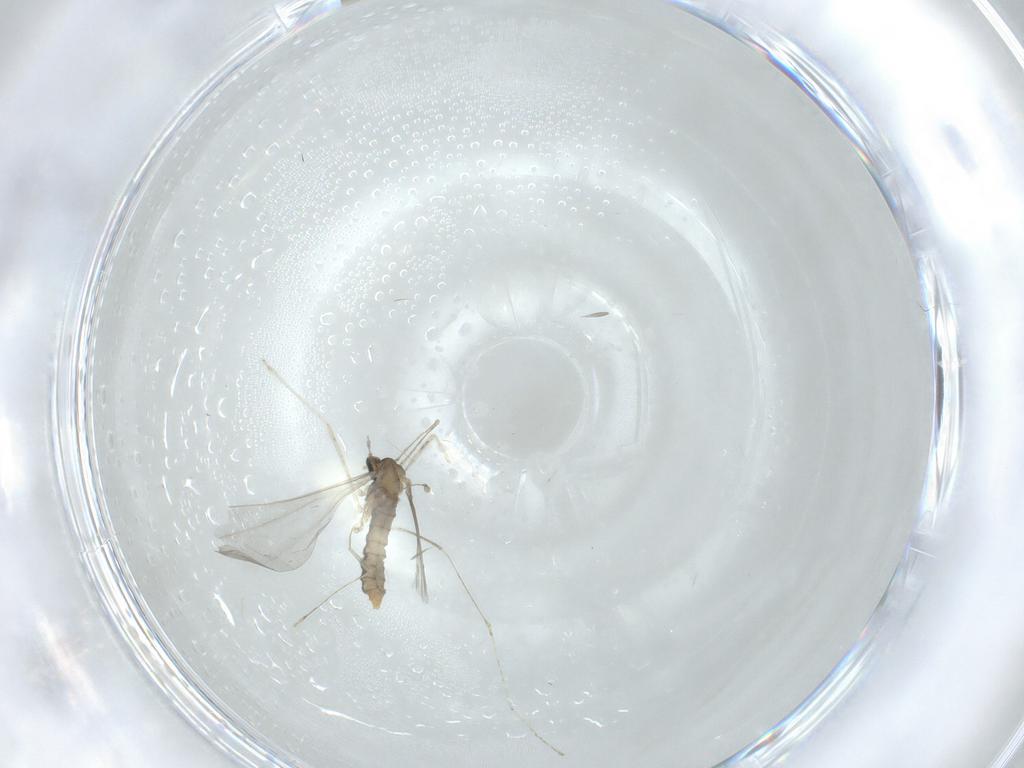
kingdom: Animalia
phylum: Arthropoda
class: Insecta
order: Diptera
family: Cecidomyiidae
